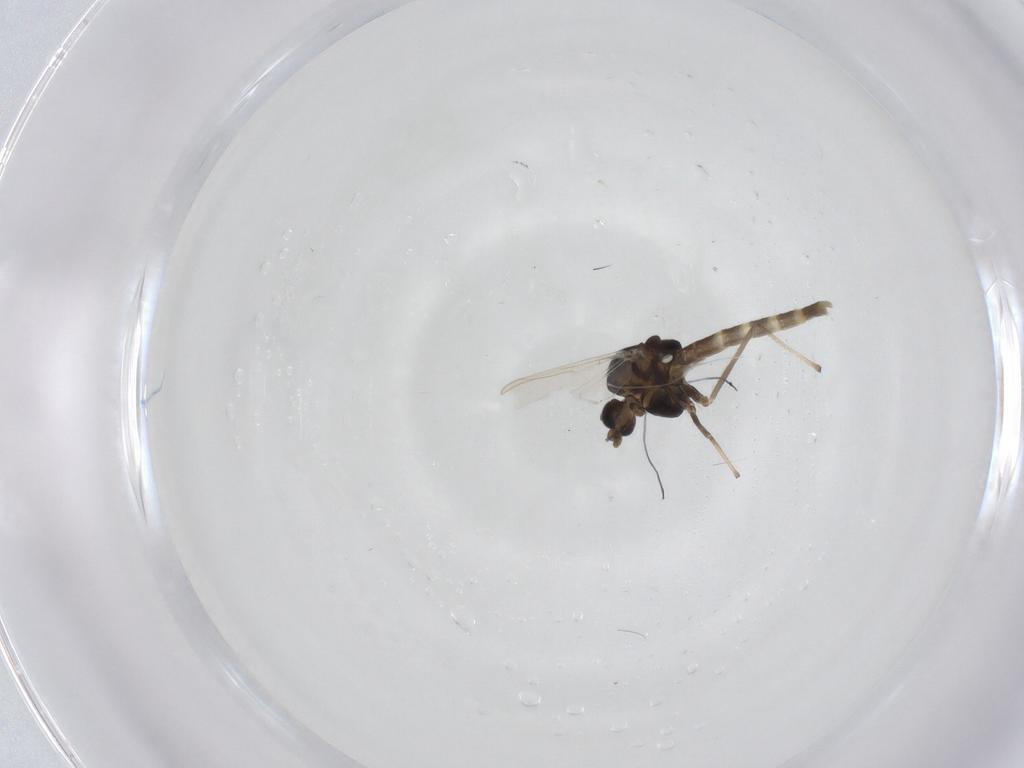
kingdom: Animalia
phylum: Arthropoda
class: Insecta
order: Diptera
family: Chironomidae
